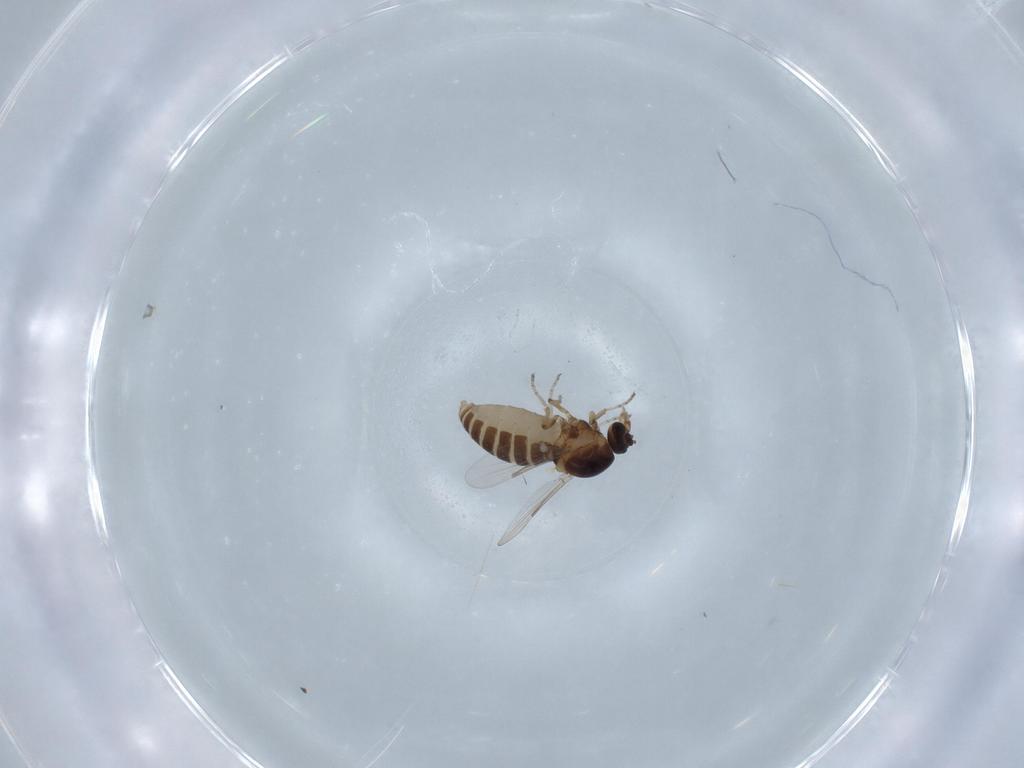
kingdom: Animalia
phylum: Arthropoda
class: Insecta
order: Diptera
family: Ceratopogonidae
